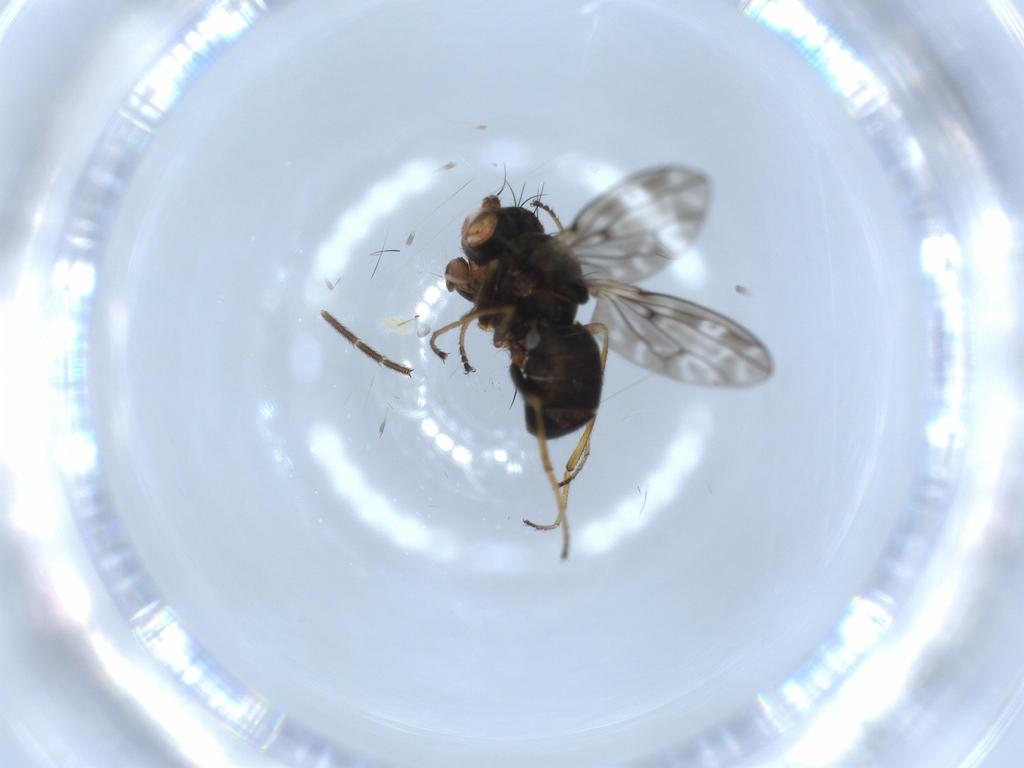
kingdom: Animalia
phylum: Arthropoda
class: Insecta
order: Diptera
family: Ephydridae
